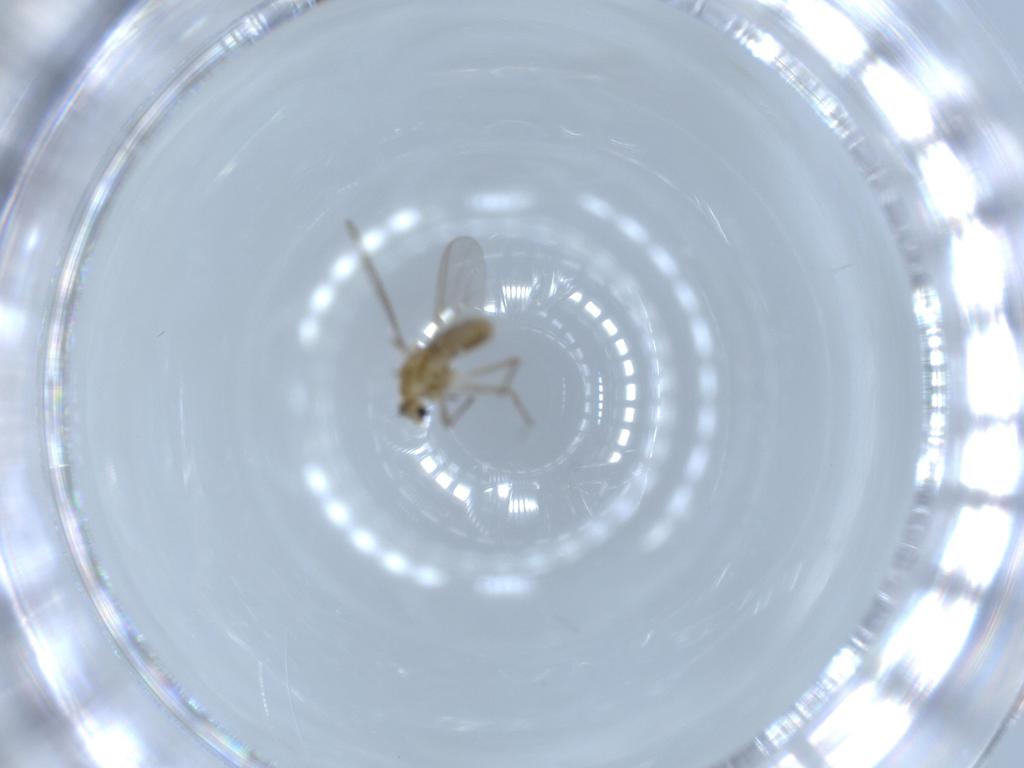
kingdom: Animalia
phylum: Arthropoda
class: Insecta
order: Diptera
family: Chironomidae
